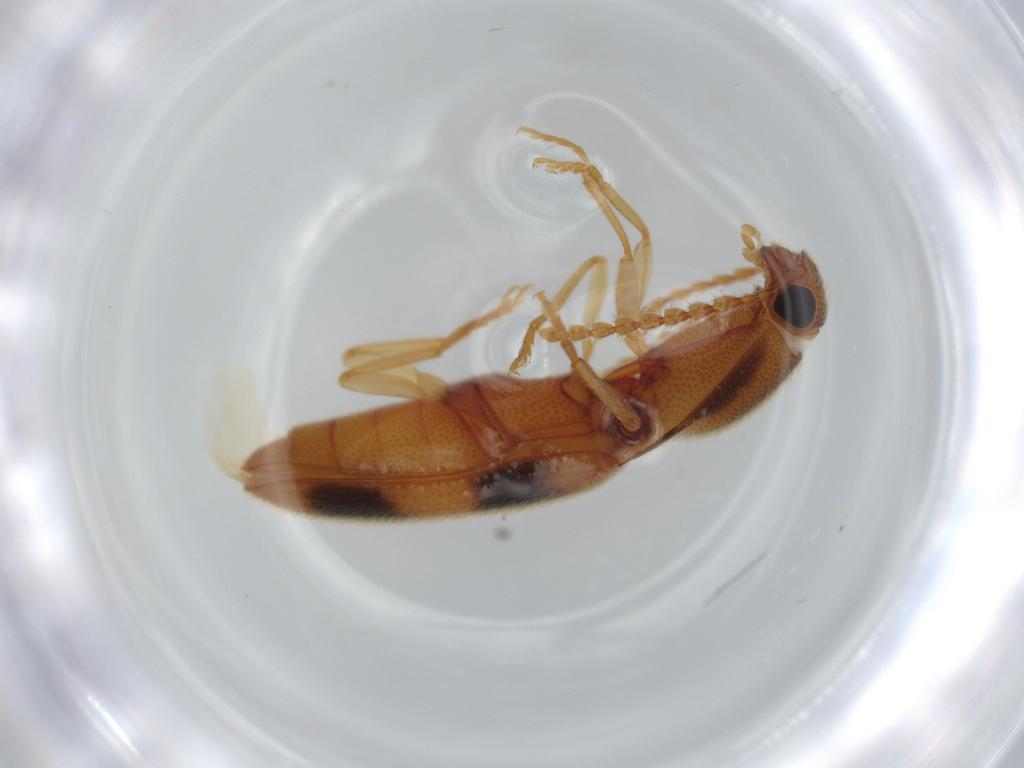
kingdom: Animalia
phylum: Arthropoda
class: Insecta
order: Coleoptera
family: Elateridae
